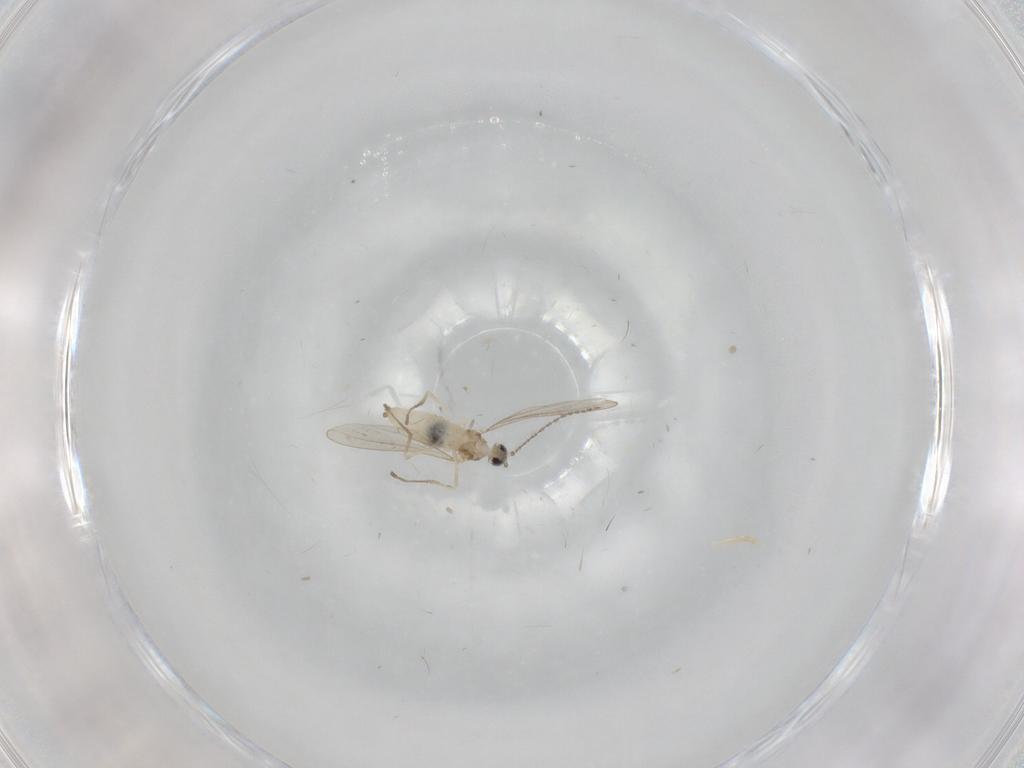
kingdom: Animalia
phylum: Arthropoda
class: Insecta
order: Diptera
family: Cecidomyiidae
